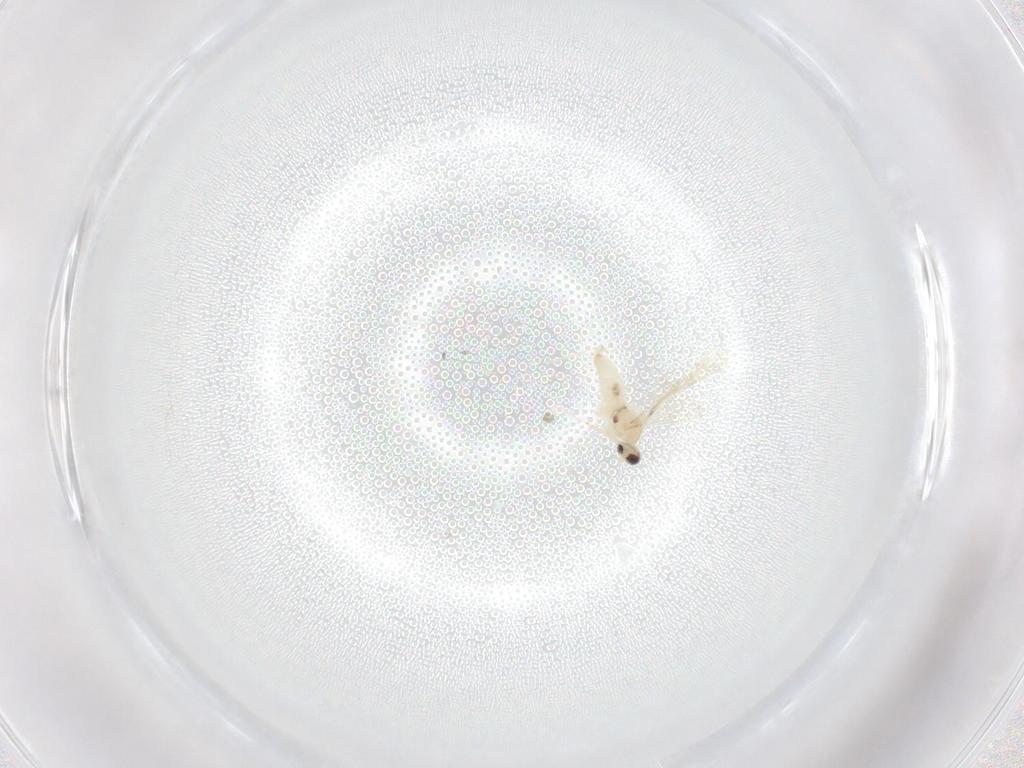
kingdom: Animalia
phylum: Arthropoda
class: Insecta
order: Diptera
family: Cecidomyiidae
